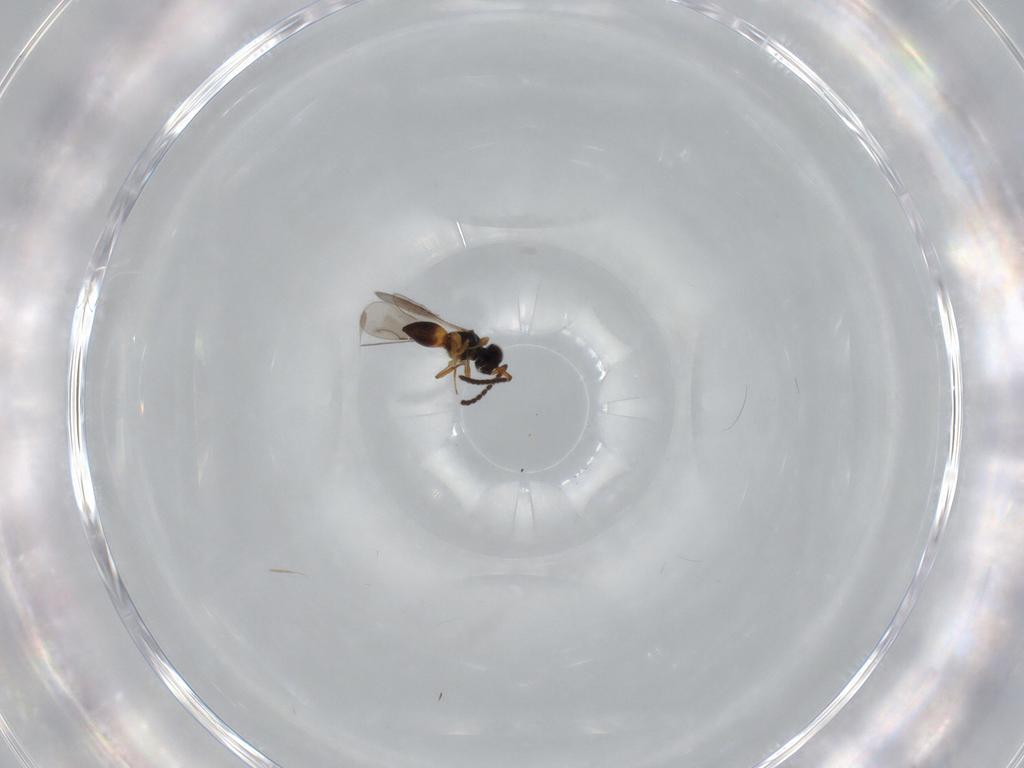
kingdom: Animalia
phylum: Arthropoda
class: Insecta
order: Hymenoptera
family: Ceraphronidae
